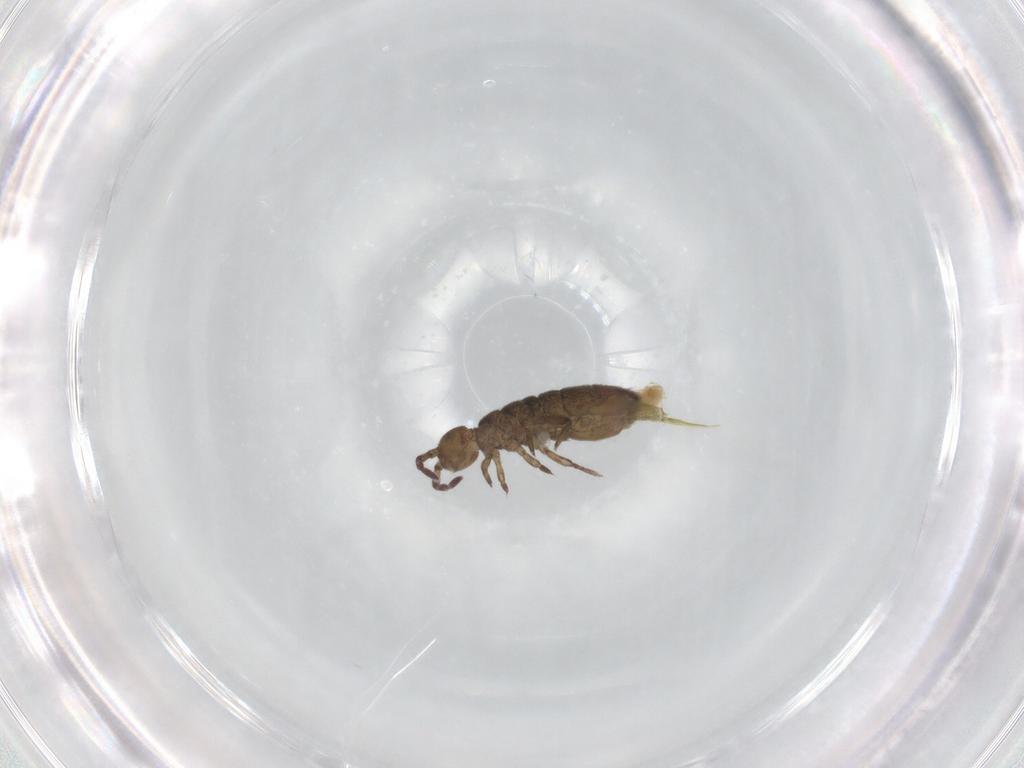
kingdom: Animalia
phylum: Arthropoda
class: Collembola
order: Entomobryomorpha
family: Isotomidae
